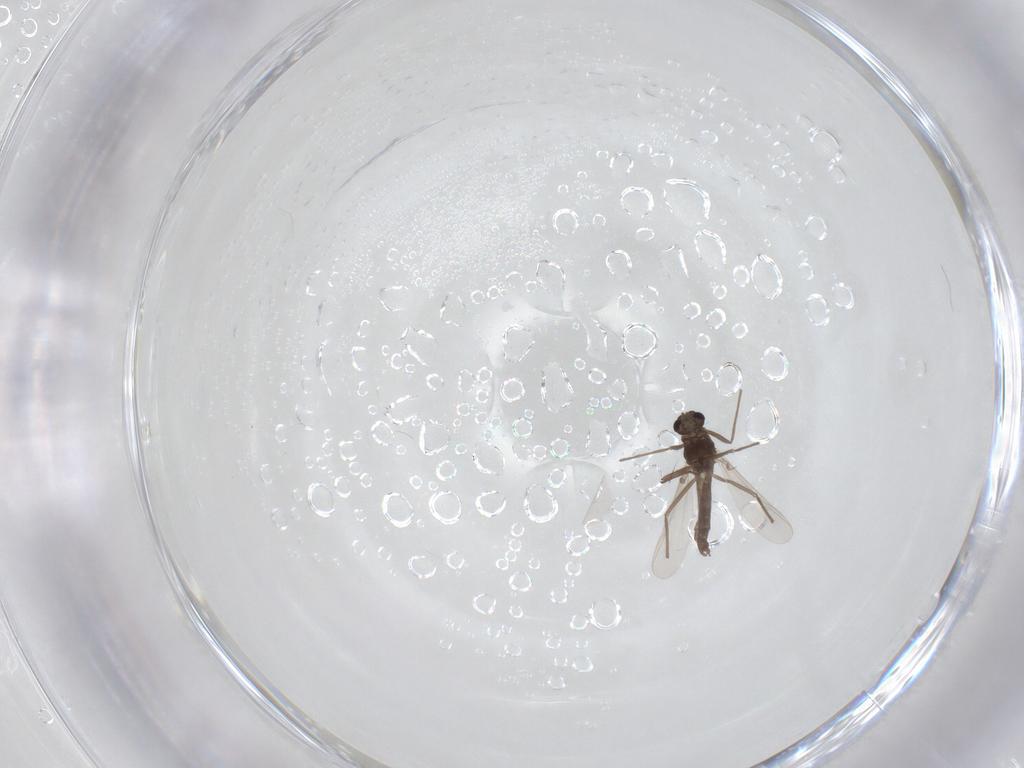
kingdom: Animalia
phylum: Arthropoda
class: Insecta
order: Diptera
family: Chironomidae
